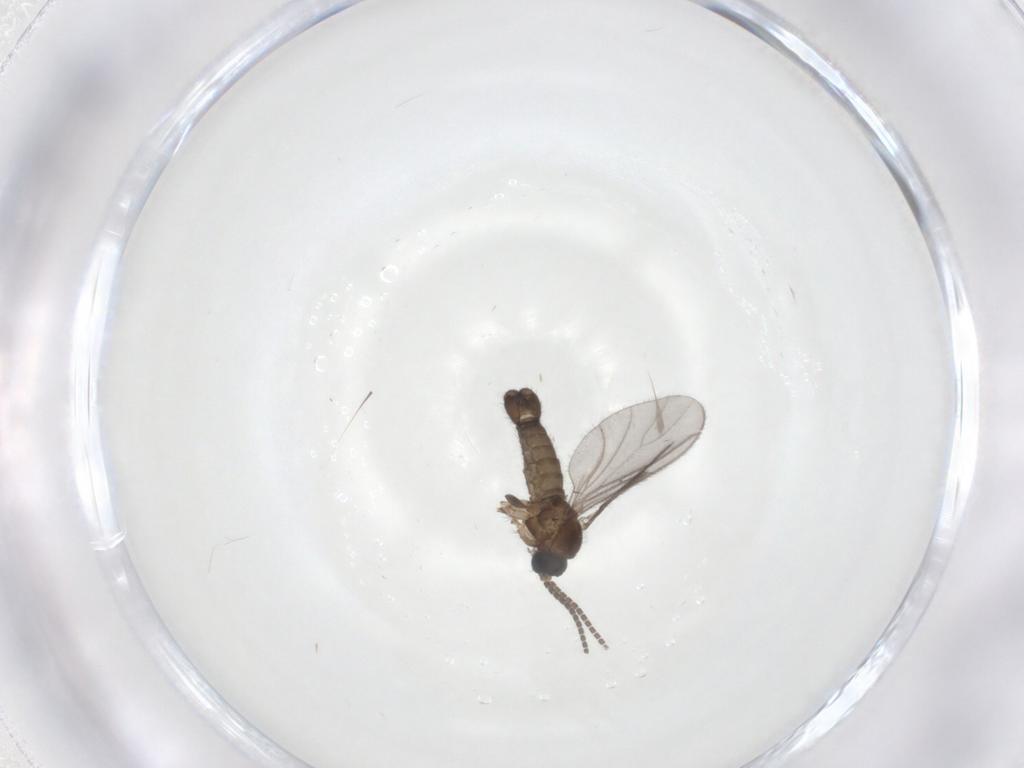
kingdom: Animalia
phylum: Arthropoda
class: Insecta
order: Diptera
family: Sciaridae
